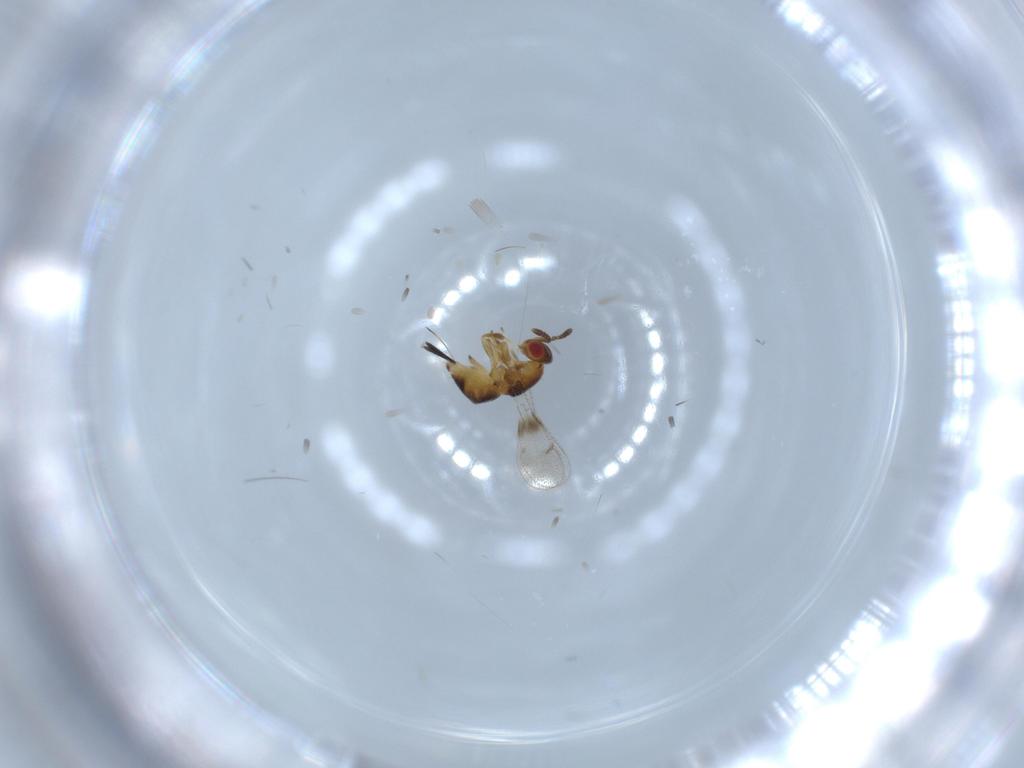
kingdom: Animalia
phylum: Arthropoda
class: Insecta
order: Hymenoptera
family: Torymidae
